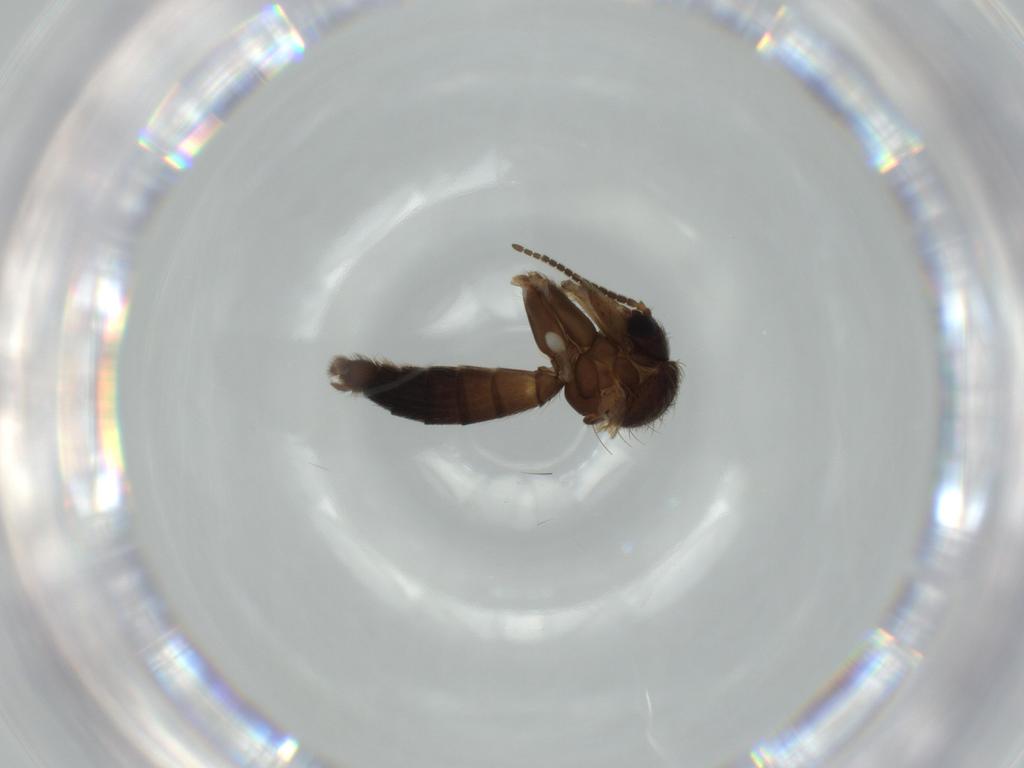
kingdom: Animalia
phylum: Arthropoda
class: Insecta
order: Diptera
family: Mycetophilidae
